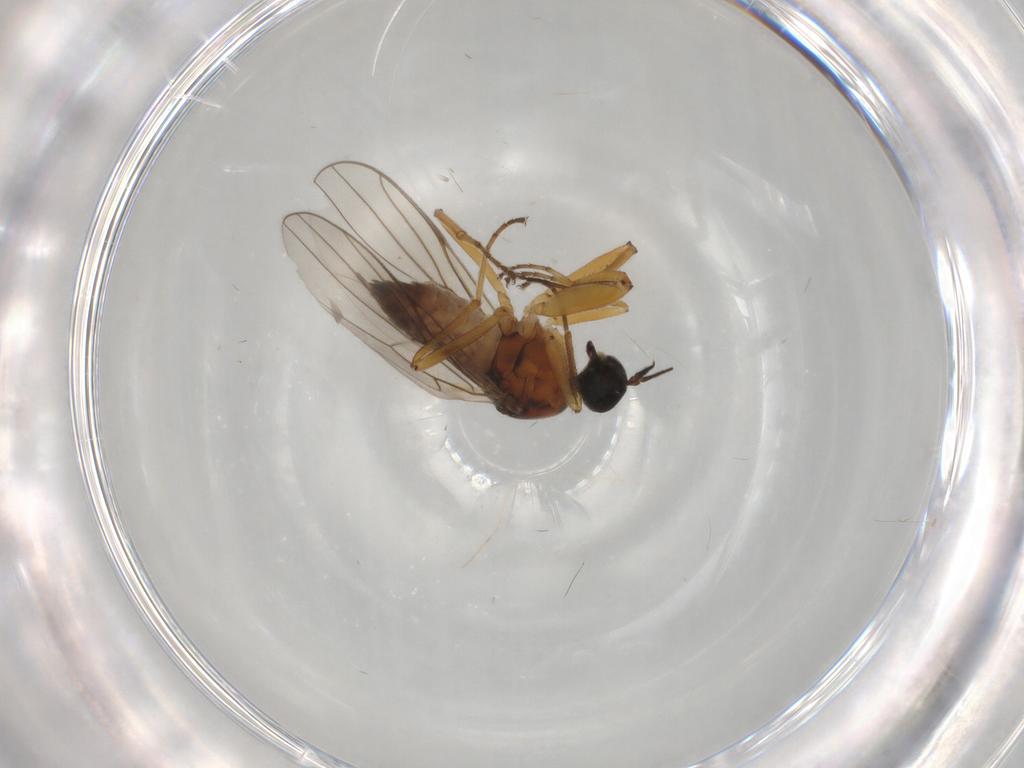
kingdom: Animalia
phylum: Arthropoda
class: Insecta
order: Diptera
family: Hybotidae
